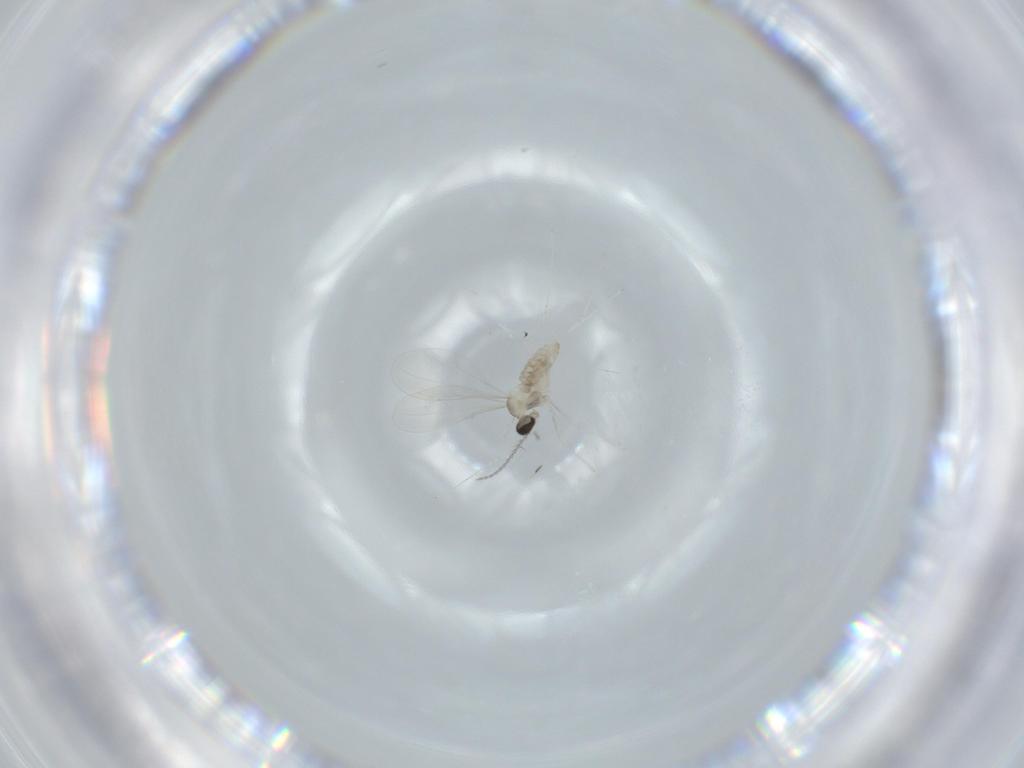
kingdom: Animalia
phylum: Arthropoda
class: Insecta
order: Diptera
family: Cecidomyiidae
